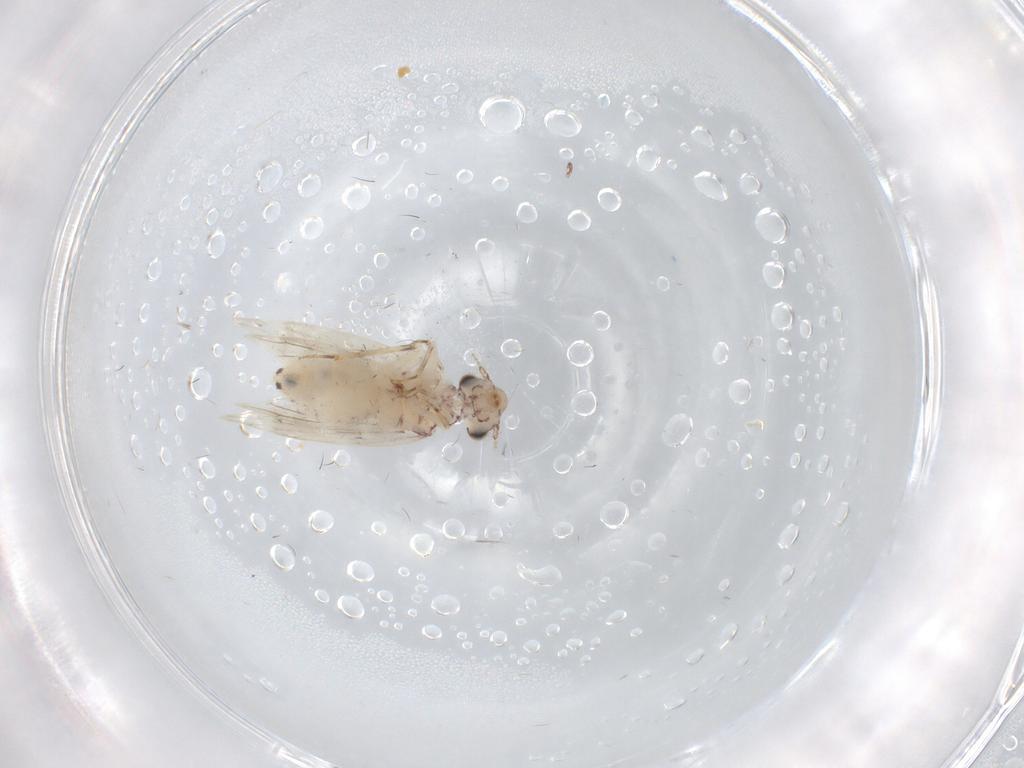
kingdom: Animalia
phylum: Arthropoda
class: Insecta
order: Psocodea
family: Lepidopsocidae
